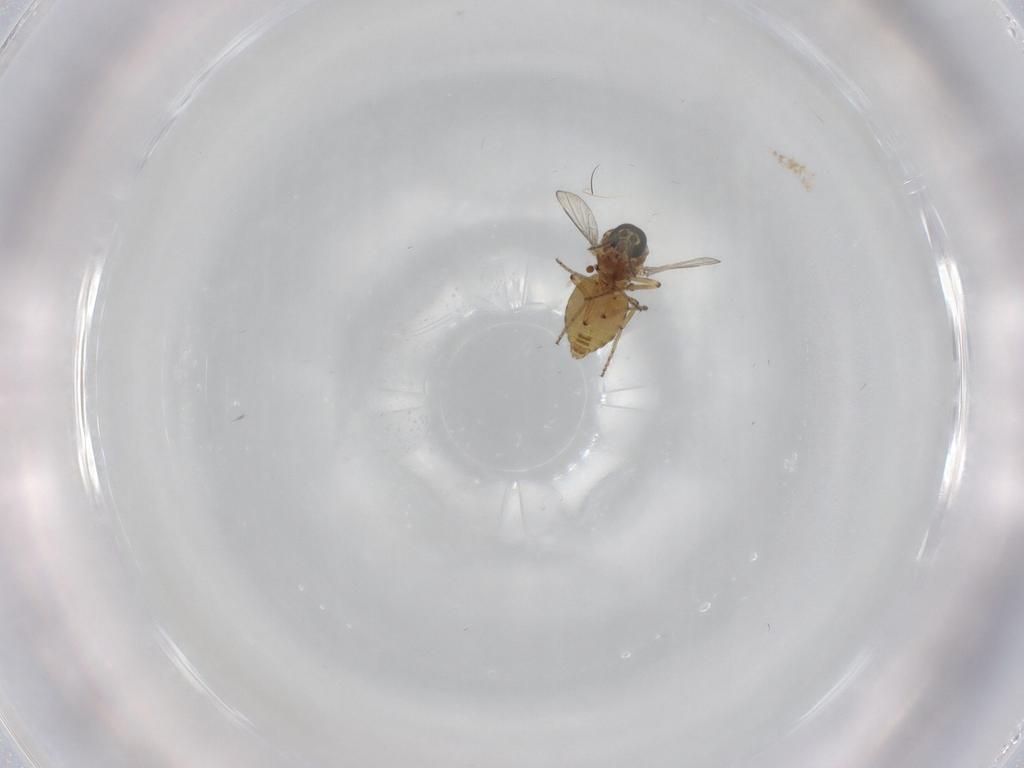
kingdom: Animalia
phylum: Arthropoda
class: Insecta
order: Diptera
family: Ceratopogonidae
